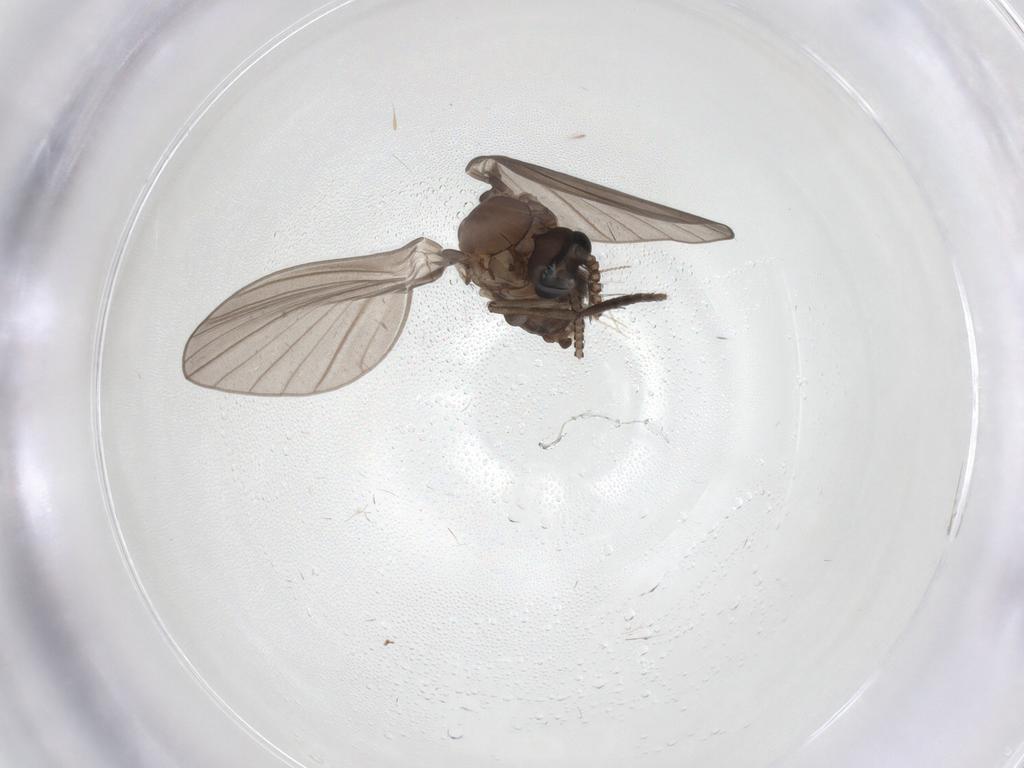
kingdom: Animalia
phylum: Arthropoda
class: Insecta
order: Diptera
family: Psychodidae
